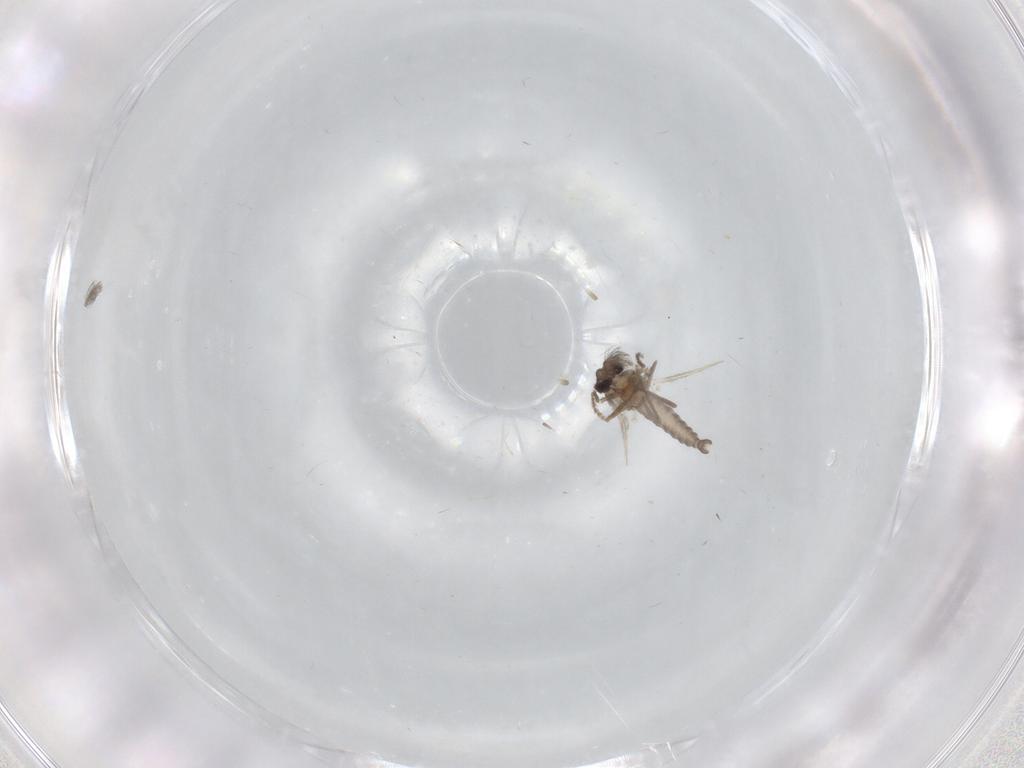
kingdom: Animalia
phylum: Arthropoda
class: Insecta
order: Diptera
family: Ceratopogonidae
